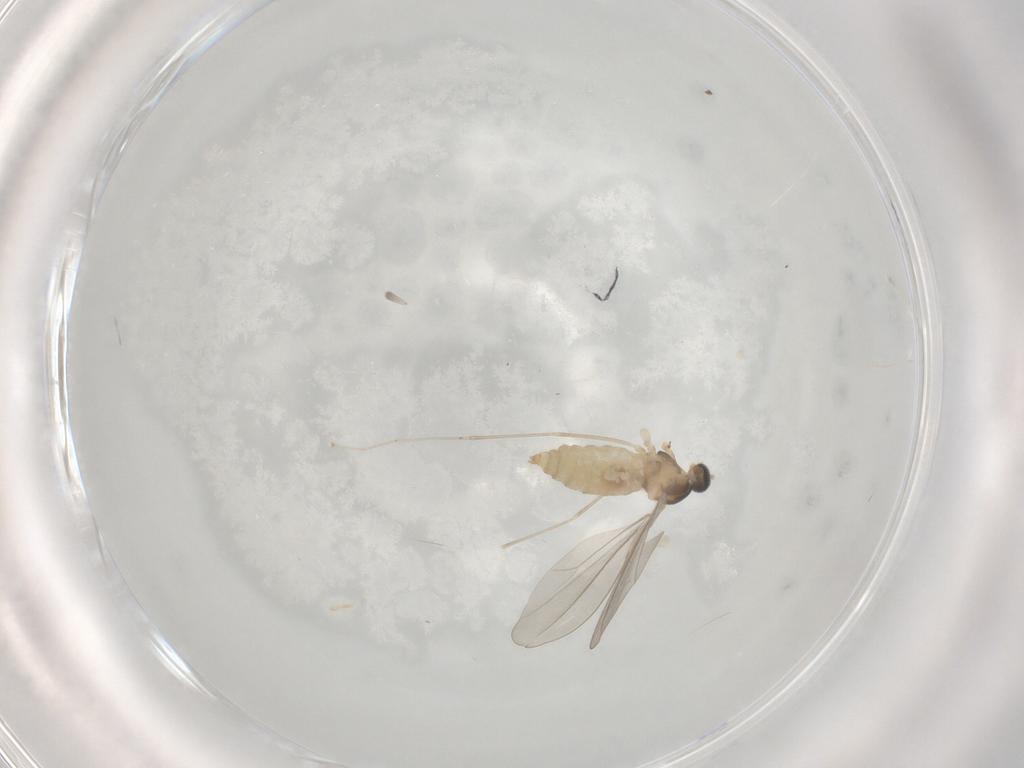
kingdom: Animalia
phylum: Arthropoda
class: Insecta
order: Diptera
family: Cecidomyiidae
